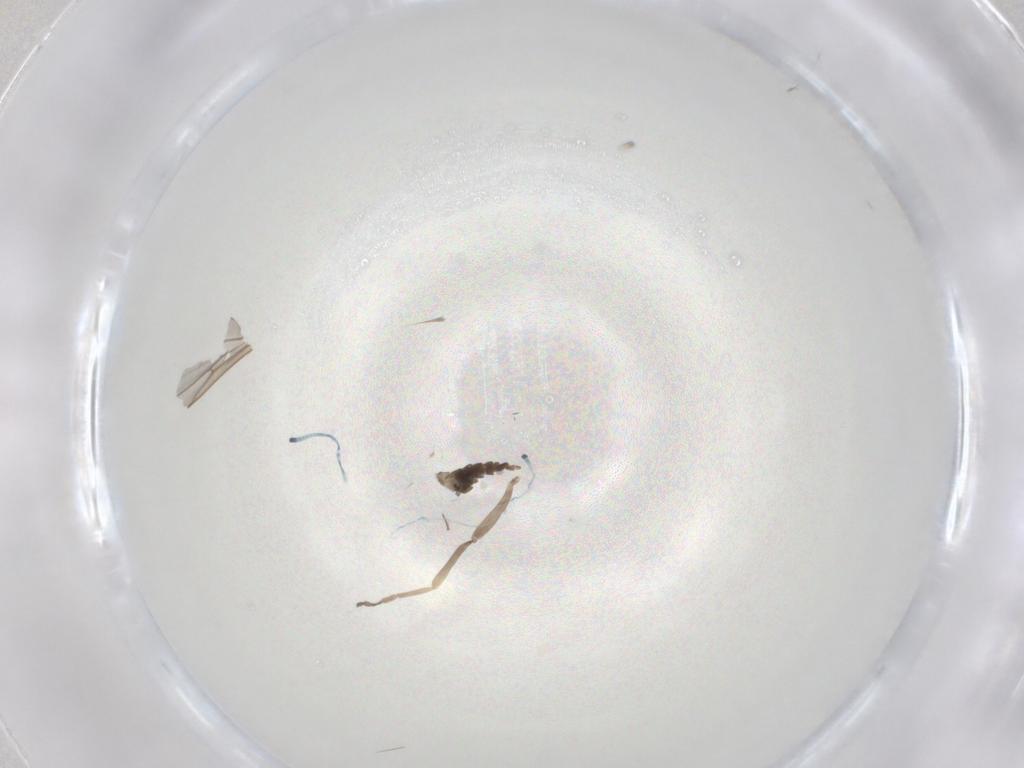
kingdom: Animalia
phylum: Arthropoda
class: Insecta
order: Diptera
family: Chloropidae
